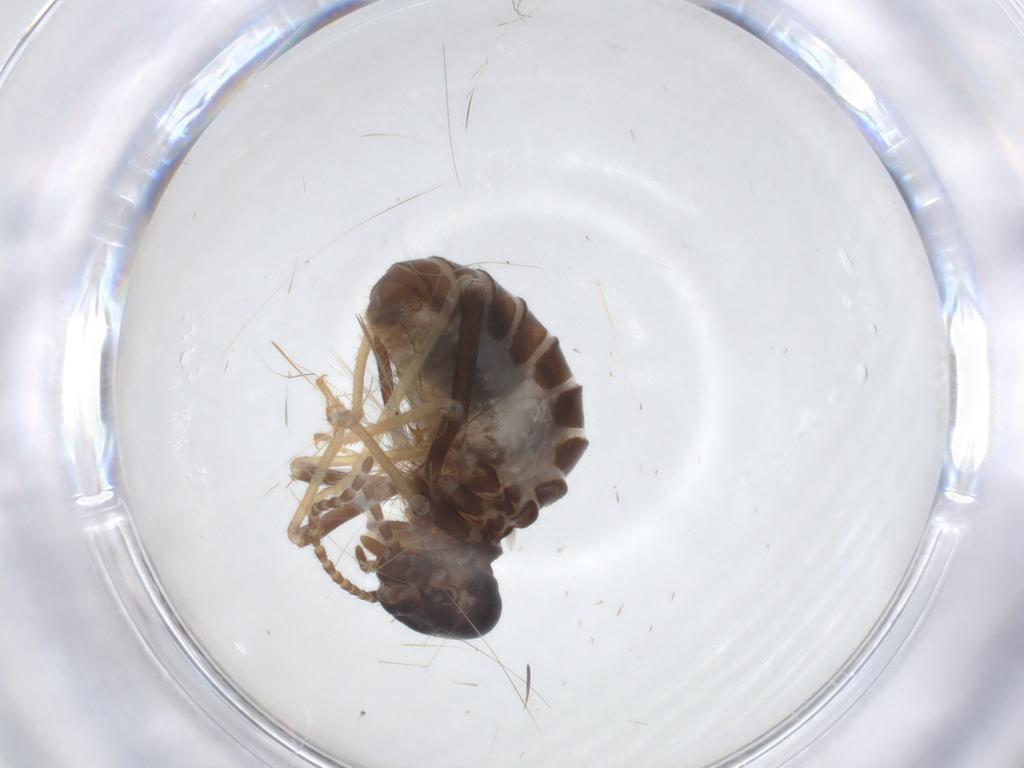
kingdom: Animalia
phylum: Arthropoda
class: Insecta
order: Blattodea
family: Termitidae
